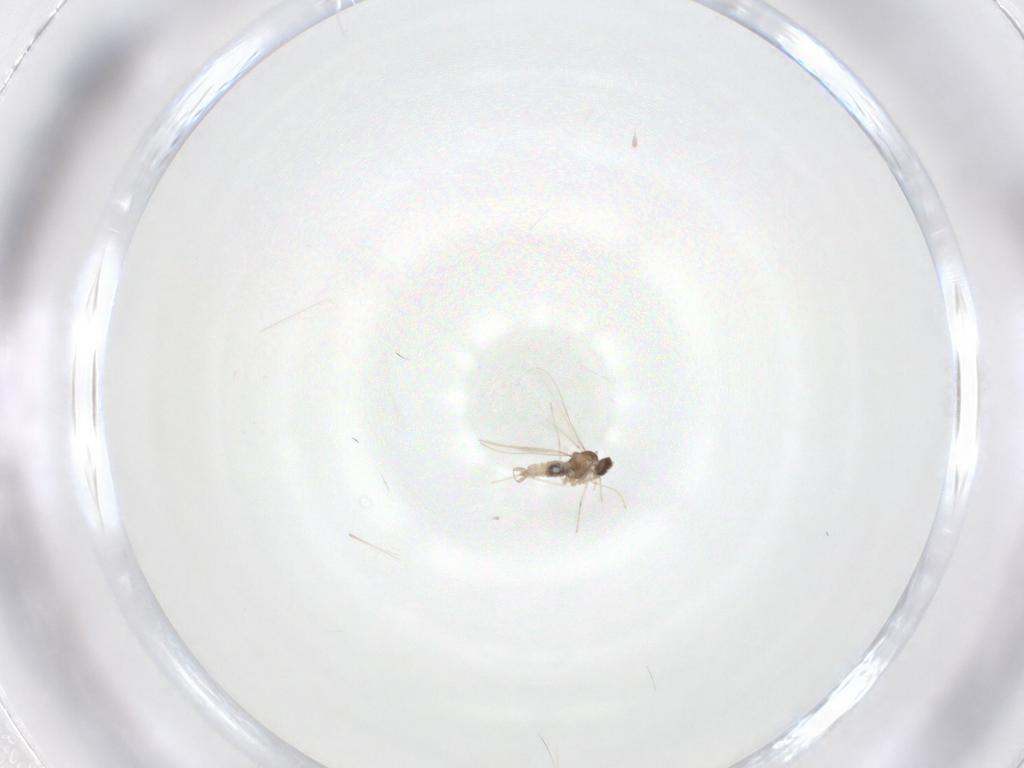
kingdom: Animalia
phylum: Arthropoda
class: Insecta
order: Diptera
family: Cecidomyiidae
